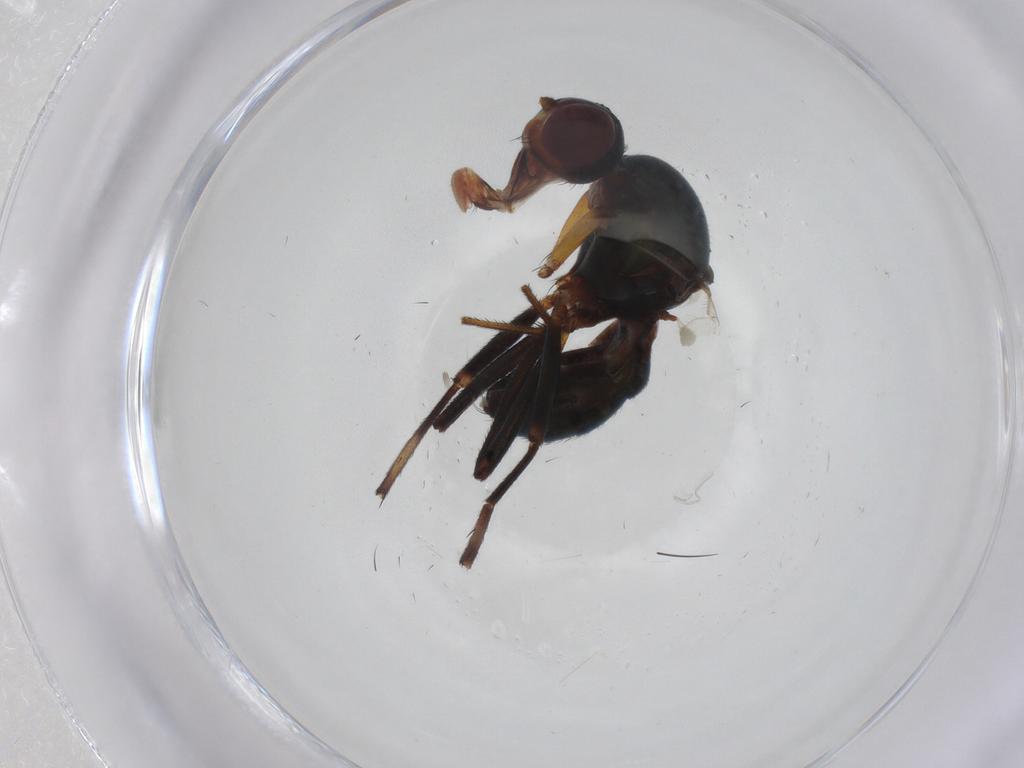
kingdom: Animalia
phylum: Arthropoda
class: Insecta
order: Diptera
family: Sepsidae
